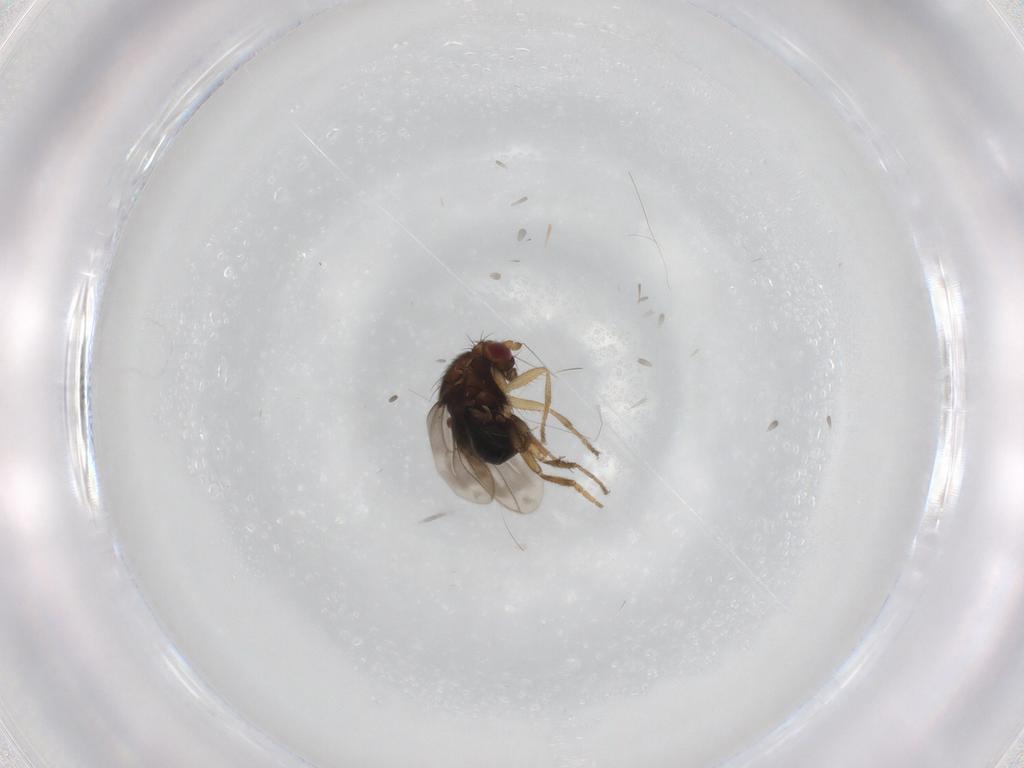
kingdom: Animalia
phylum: Arthropoda
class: Insecta
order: Diptera
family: Agromyzidae
